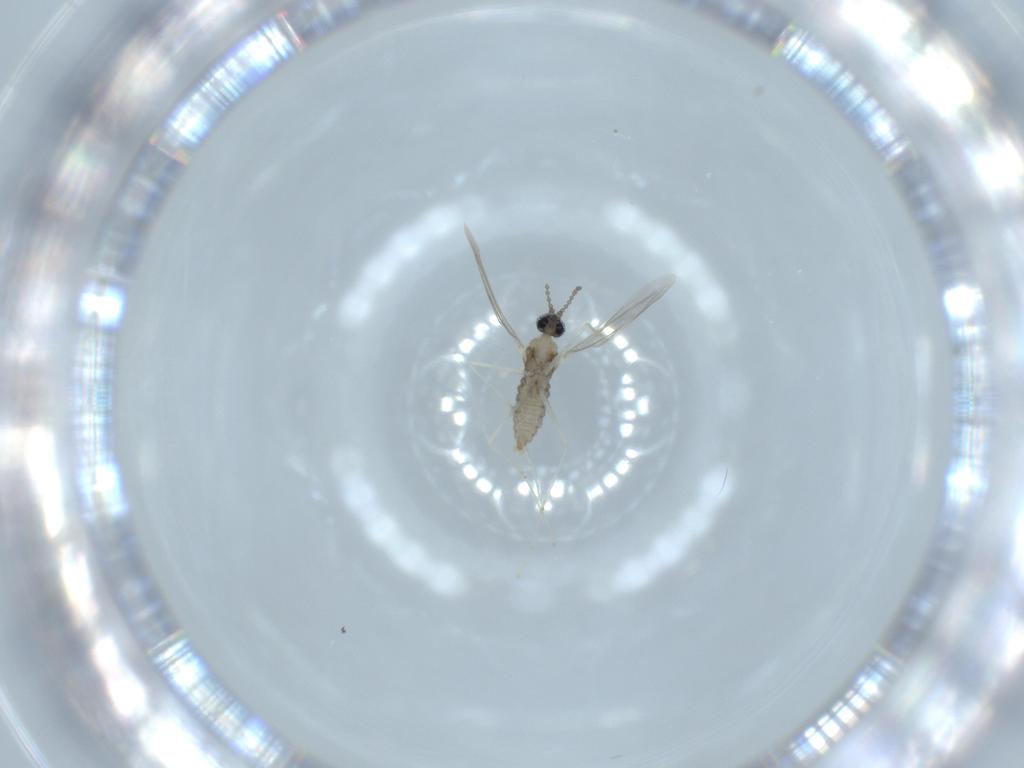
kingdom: Animalia
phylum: Arthropoda
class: Insecta
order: Diptera
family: Cecidomyiidae
